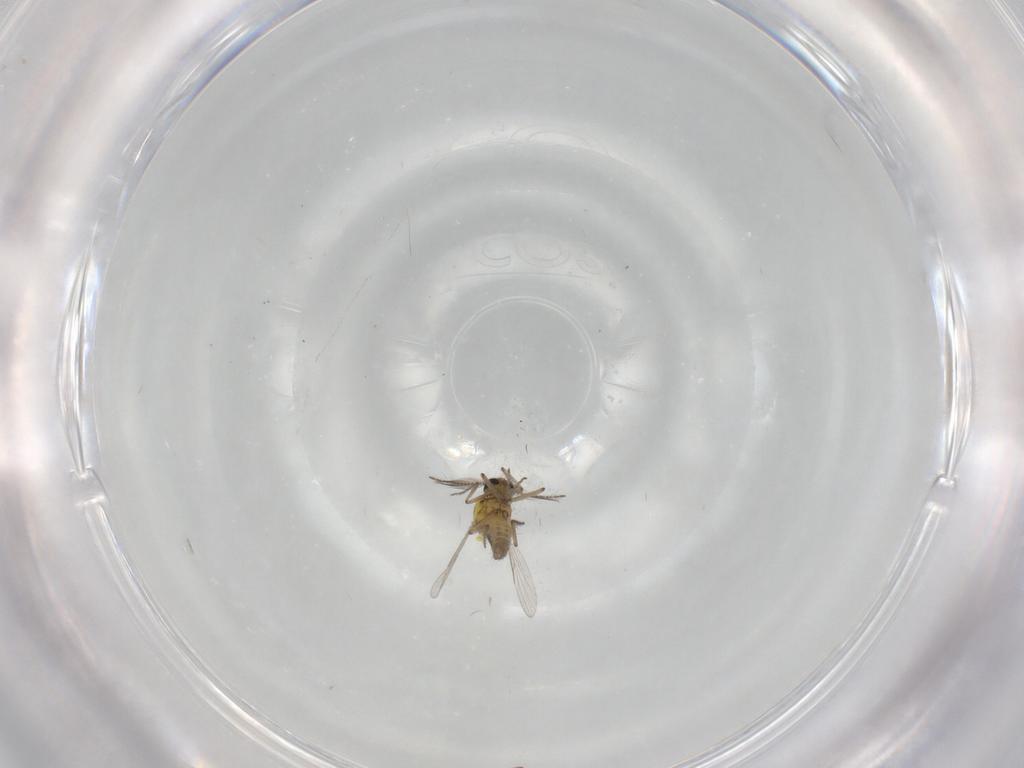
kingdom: Animalia
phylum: Arthropoda
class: Insecta
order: Diptera
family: Ceratopogonidae
